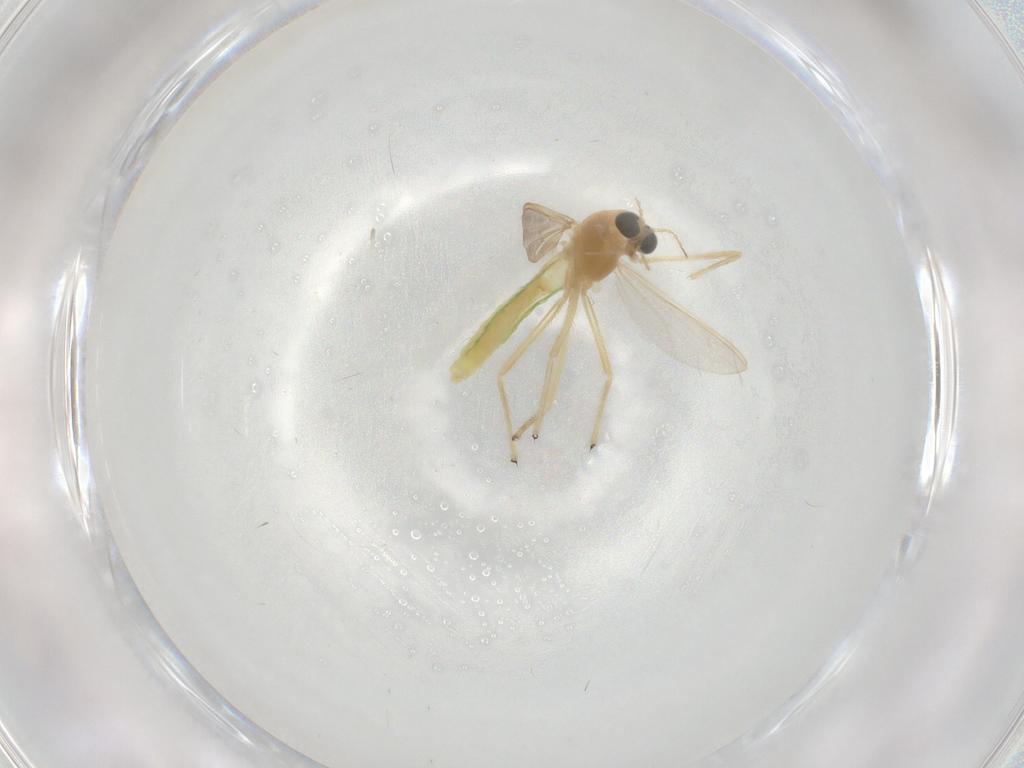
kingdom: Animalia
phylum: Arthropoda
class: Insecta
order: Diptera
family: Chironomidae
